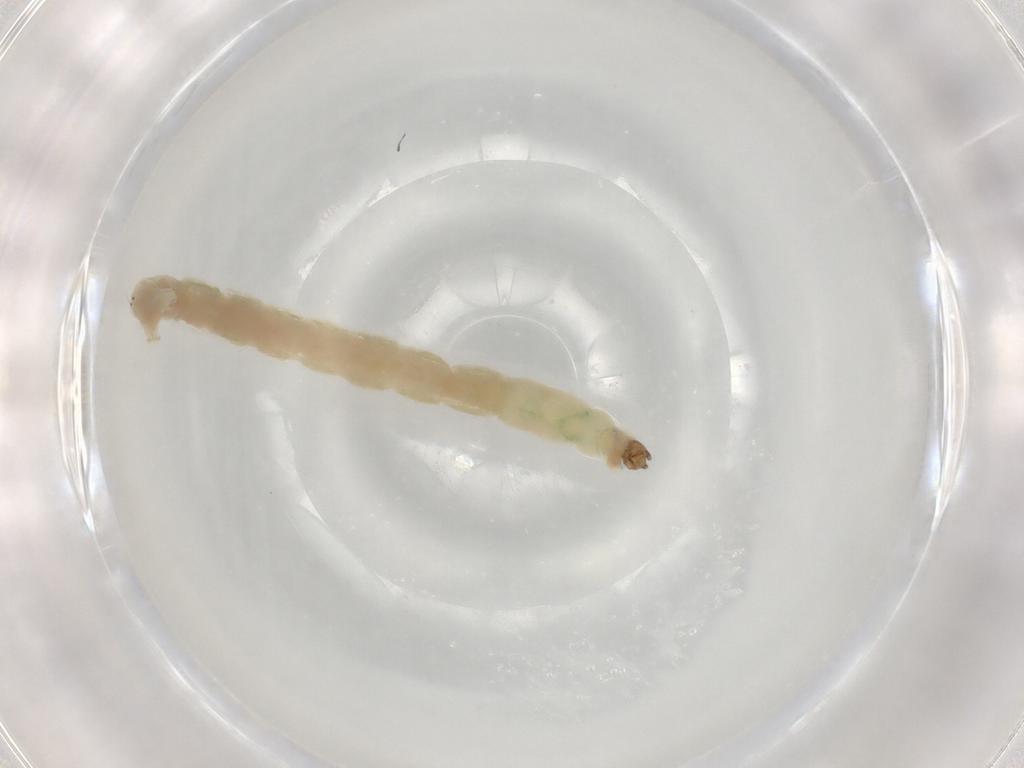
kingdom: Animalia
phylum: Arthropoda
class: Insecta
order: Diptera
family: Chironomidae
